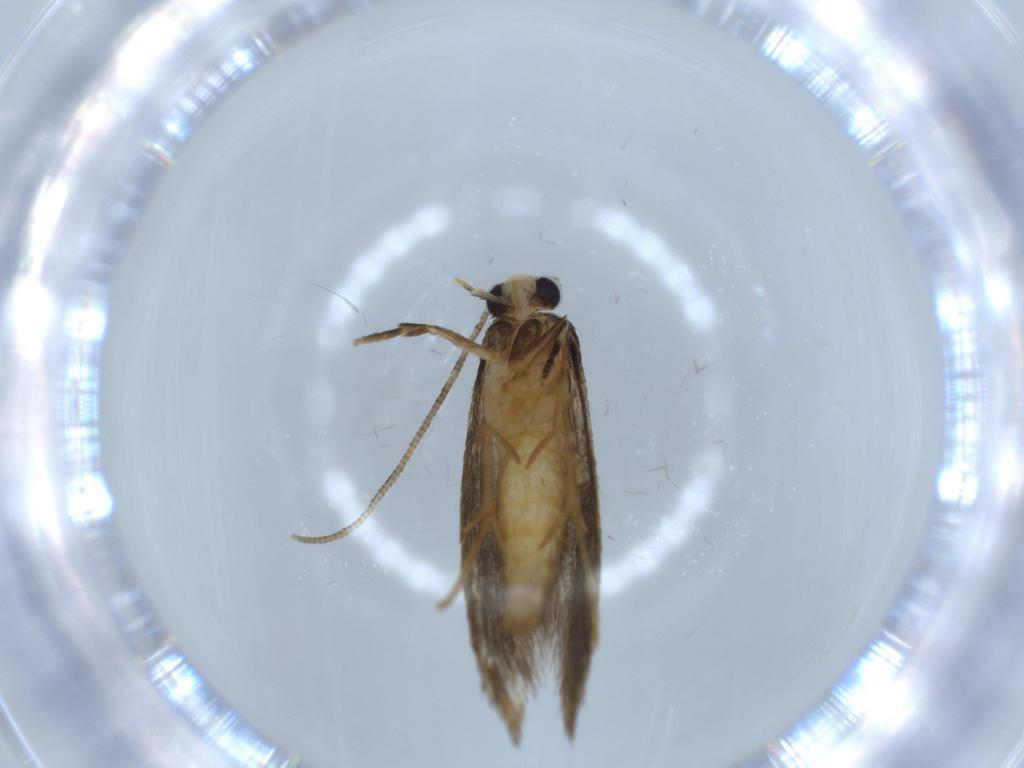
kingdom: Animalia
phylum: Arthropoda
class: Insecta
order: Lepidoptera
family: Tineidae
